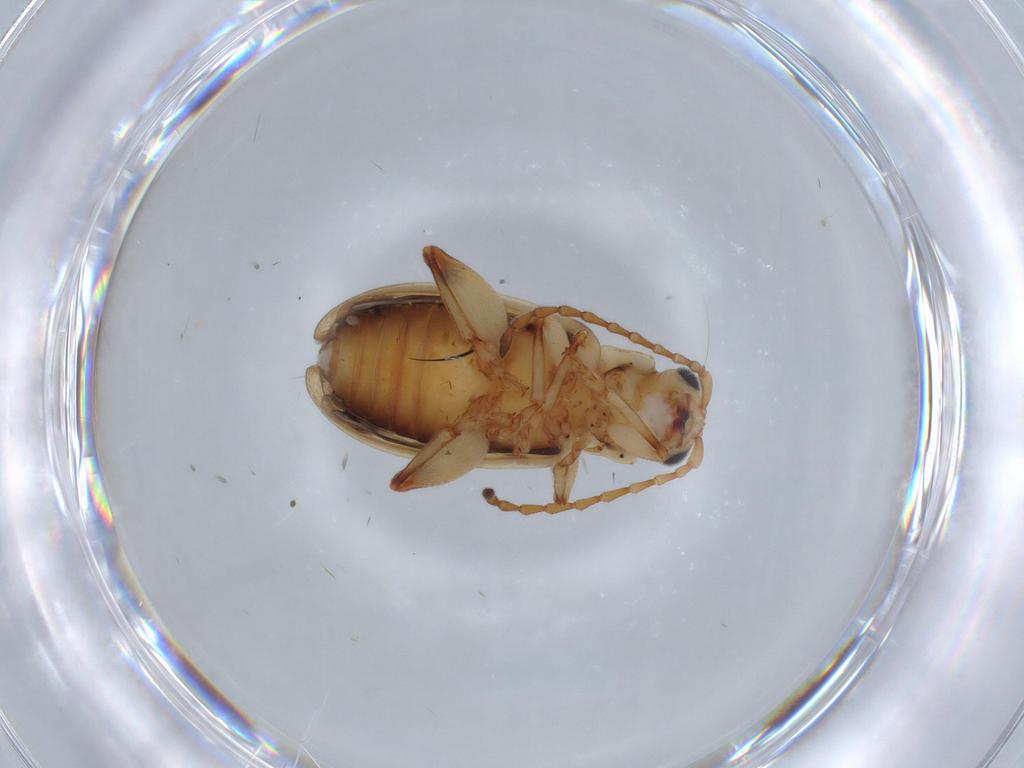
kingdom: Animalia
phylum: Arthropoda
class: Insecta
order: Coleoptera
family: Chrysomelidae
